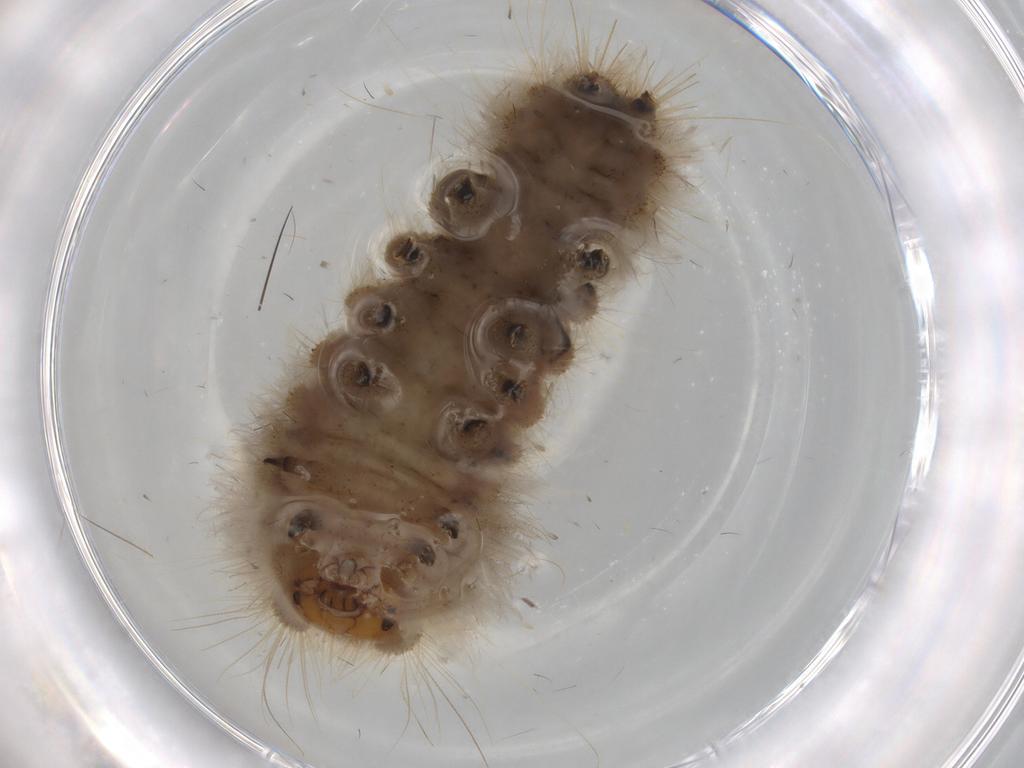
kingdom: Animalia
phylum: Arthropoda
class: Insecta
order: Lepidoptera
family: Erebidae
